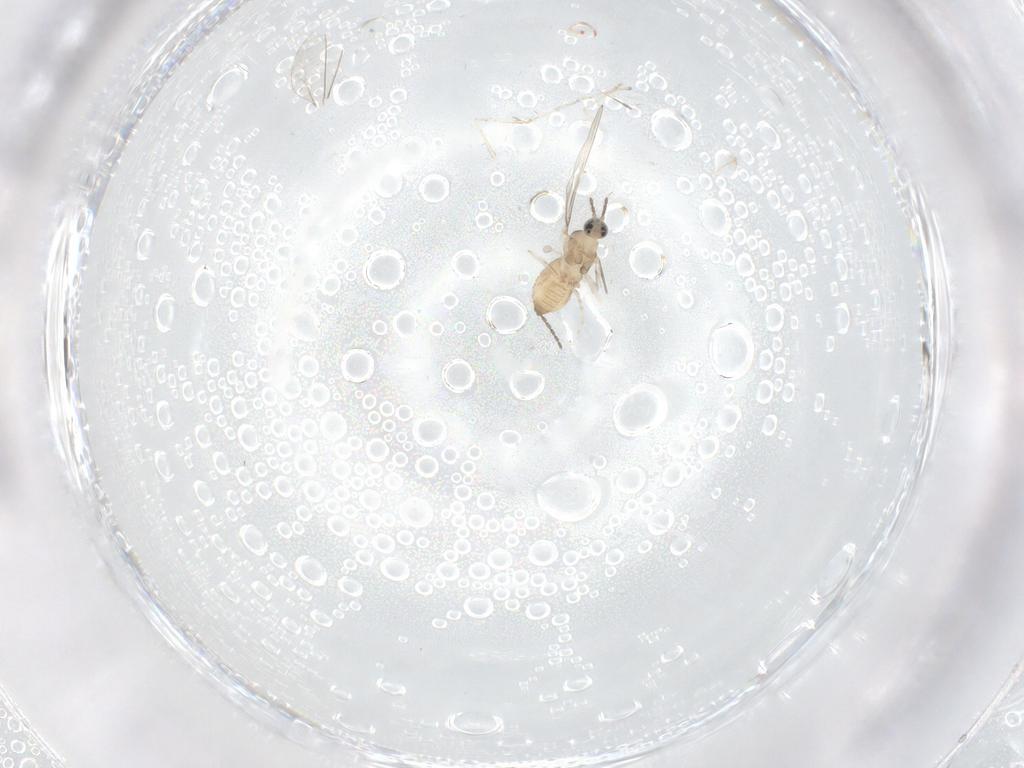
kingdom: Animalia
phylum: Arthropoda
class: Insecta
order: Diptera
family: Cecidomyiidae
